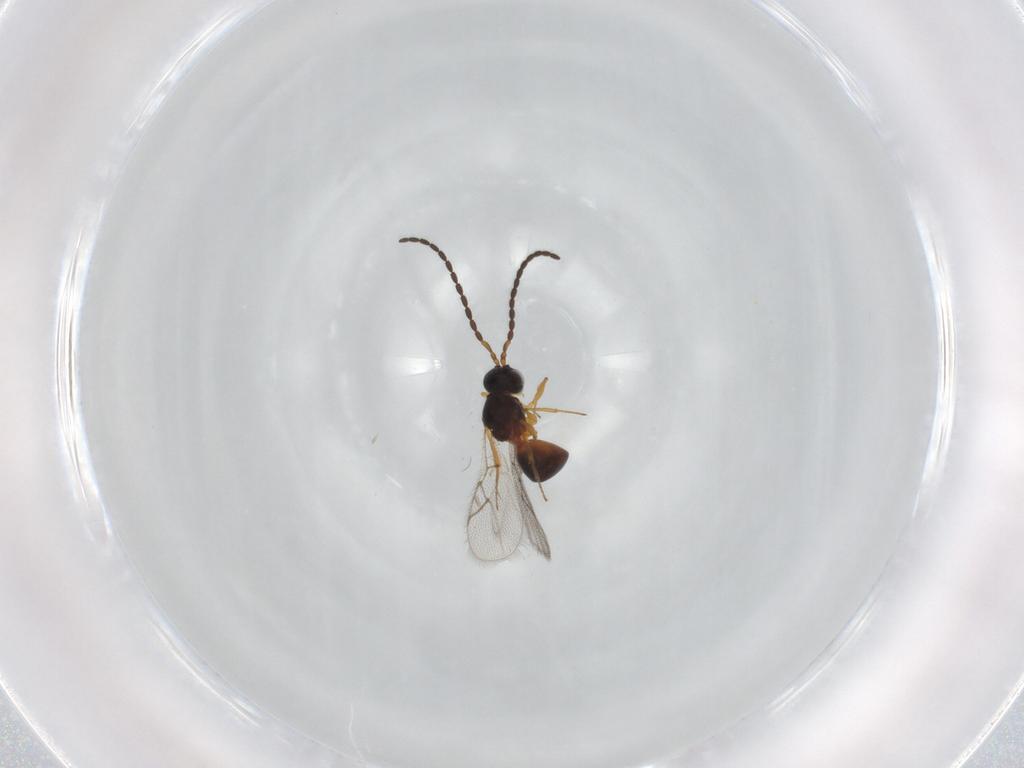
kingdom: Animalia
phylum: Arthropoda
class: Insecta
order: Hymenoptera
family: Figitidae
